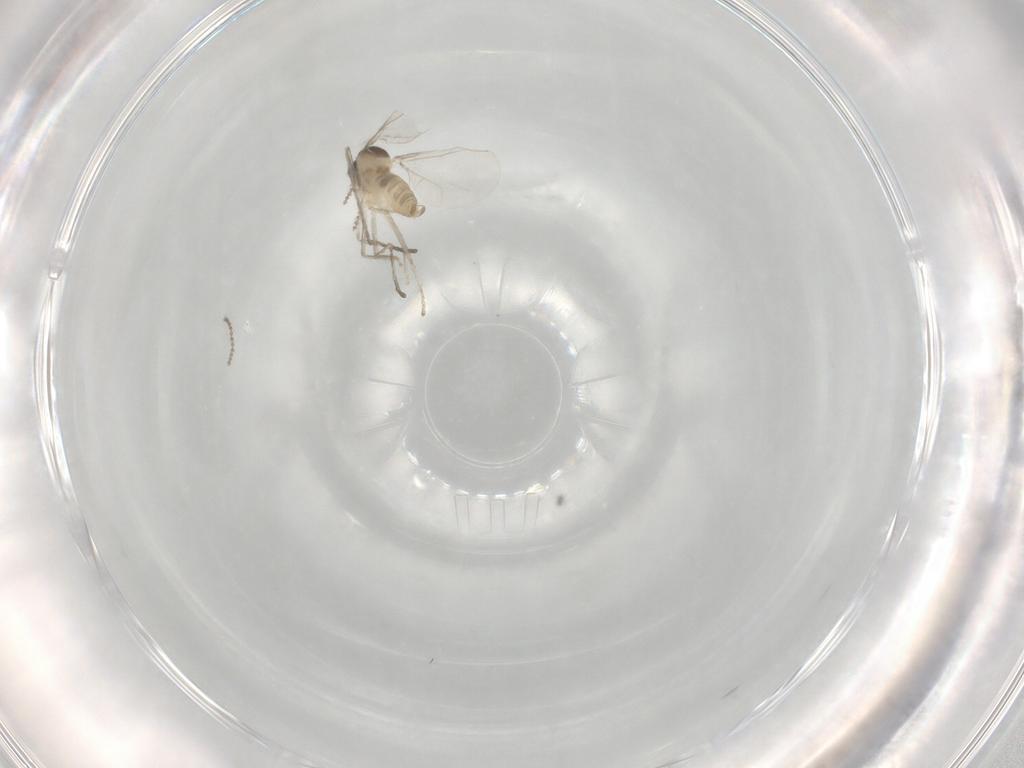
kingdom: Animalia
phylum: Arthropoda
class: Insecta
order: Diptera
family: Cecidomyiidae
